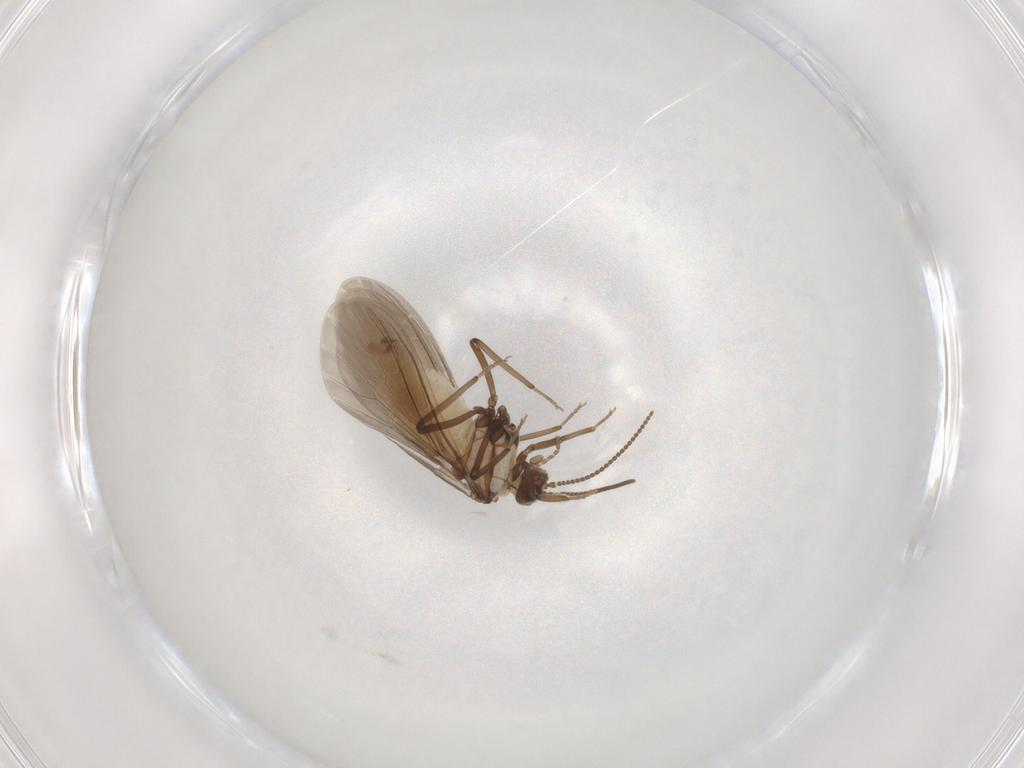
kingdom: Animalia
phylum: Arthropoda
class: Insecta
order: Neuroptera
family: Coniopterygidae
